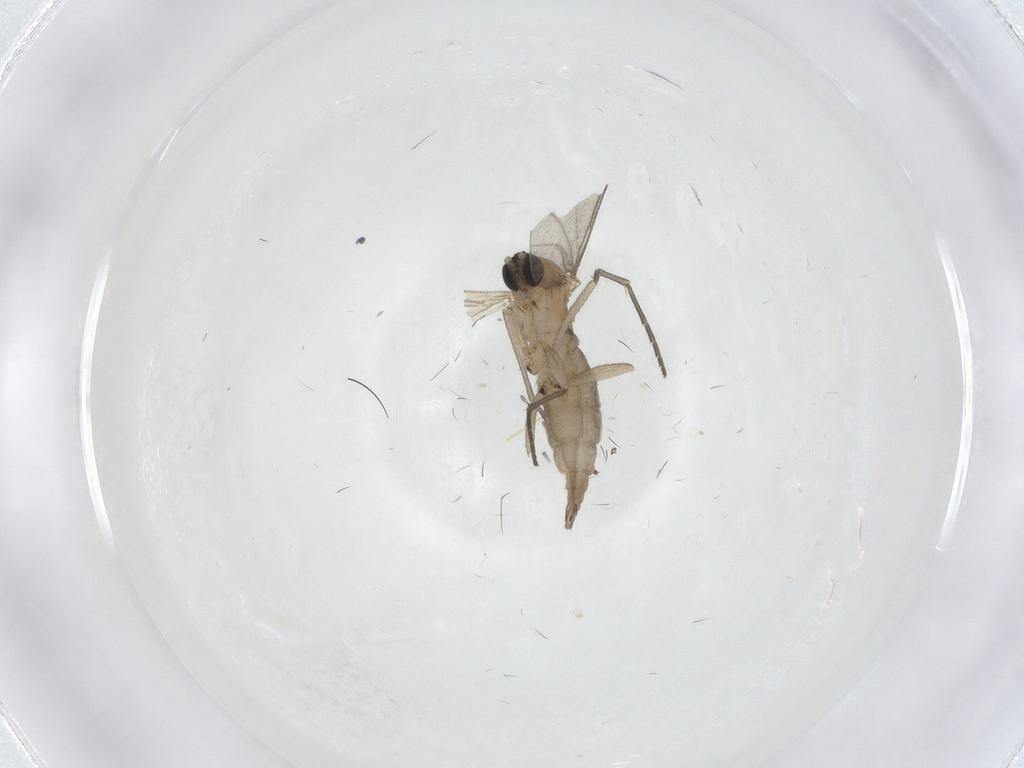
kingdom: Animalia
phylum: Arthropoda
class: Insecta
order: Diptera
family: Sciaridae
